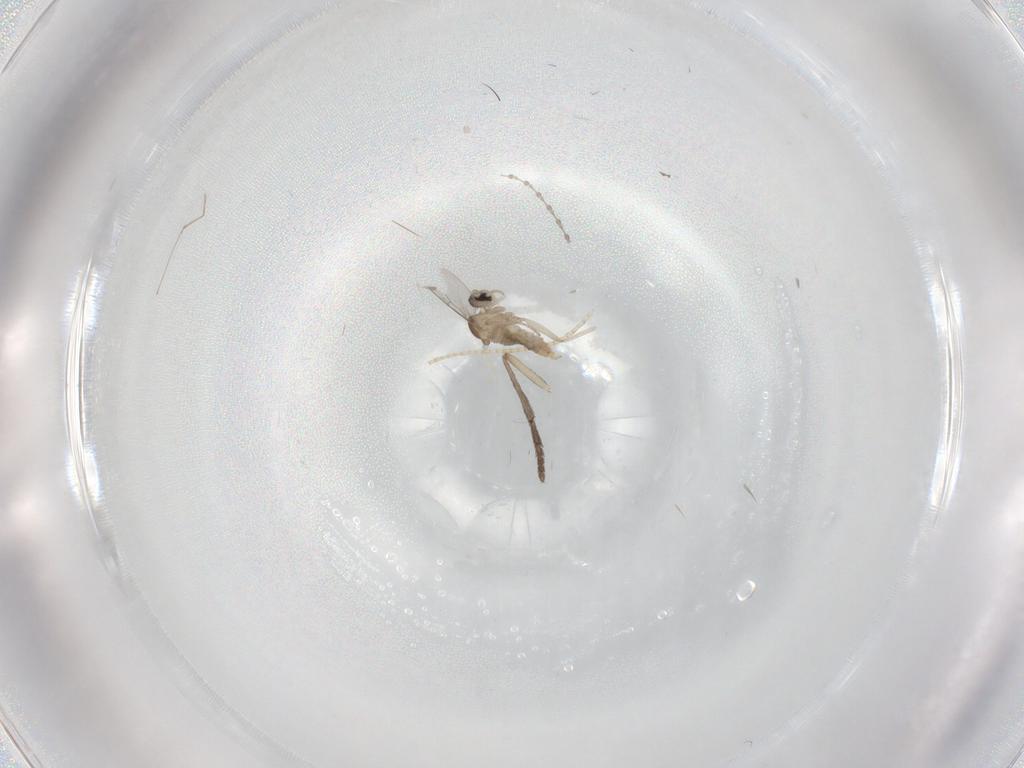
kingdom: Animalia
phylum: Arthropoda
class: Insecta
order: Diptera
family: Cecidomyiidae
